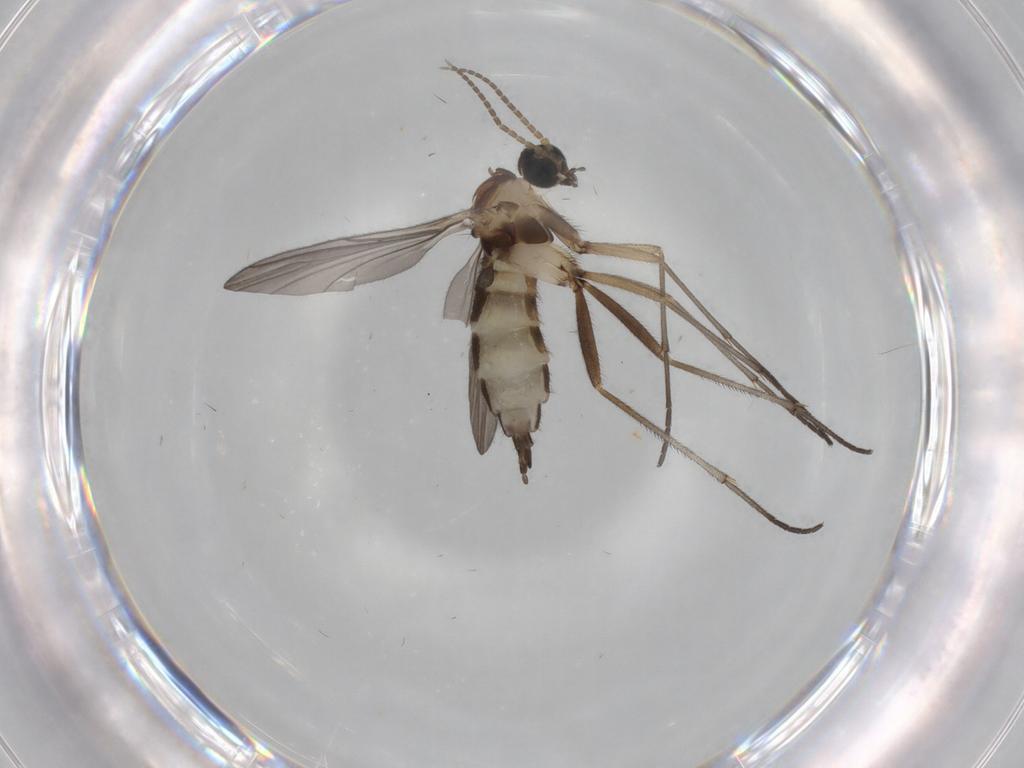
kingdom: Animalia
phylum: Arthropoda
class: Insecta
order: Diptera
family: Sciaridae
